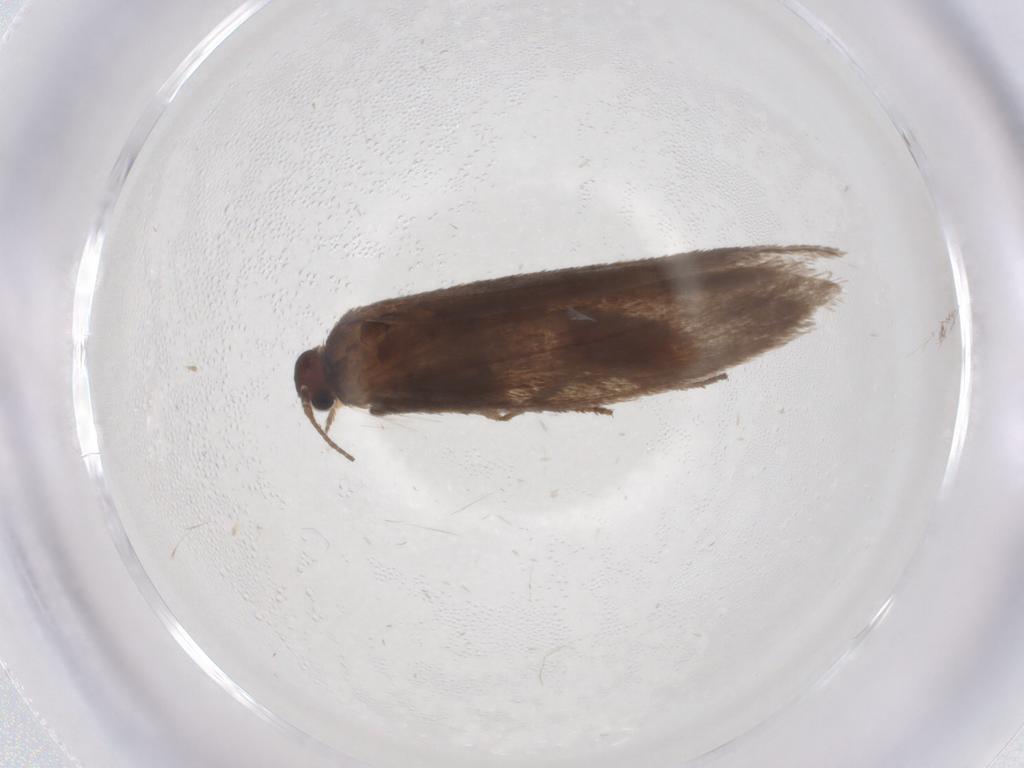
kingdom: Animalia
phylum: Arthropoda
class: Insecta
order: Lepidoptera
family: Limacodidae
